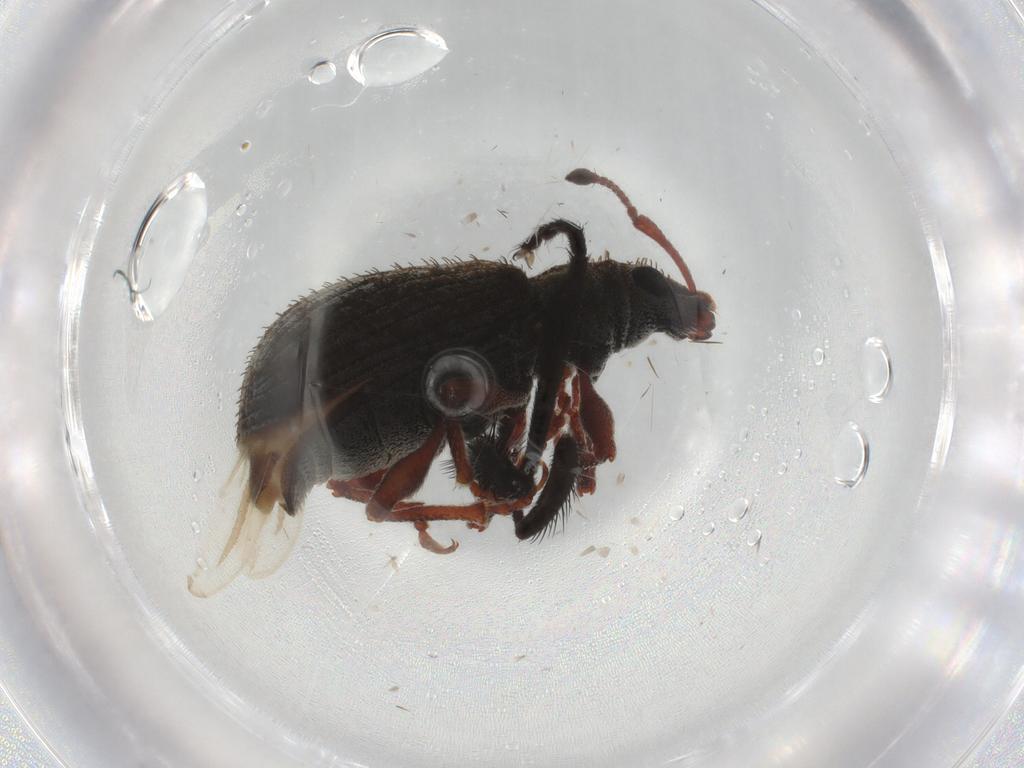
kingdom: Animalia
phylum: Arthropoda
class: Insecta
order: Coleoptera
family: Curculionidae
